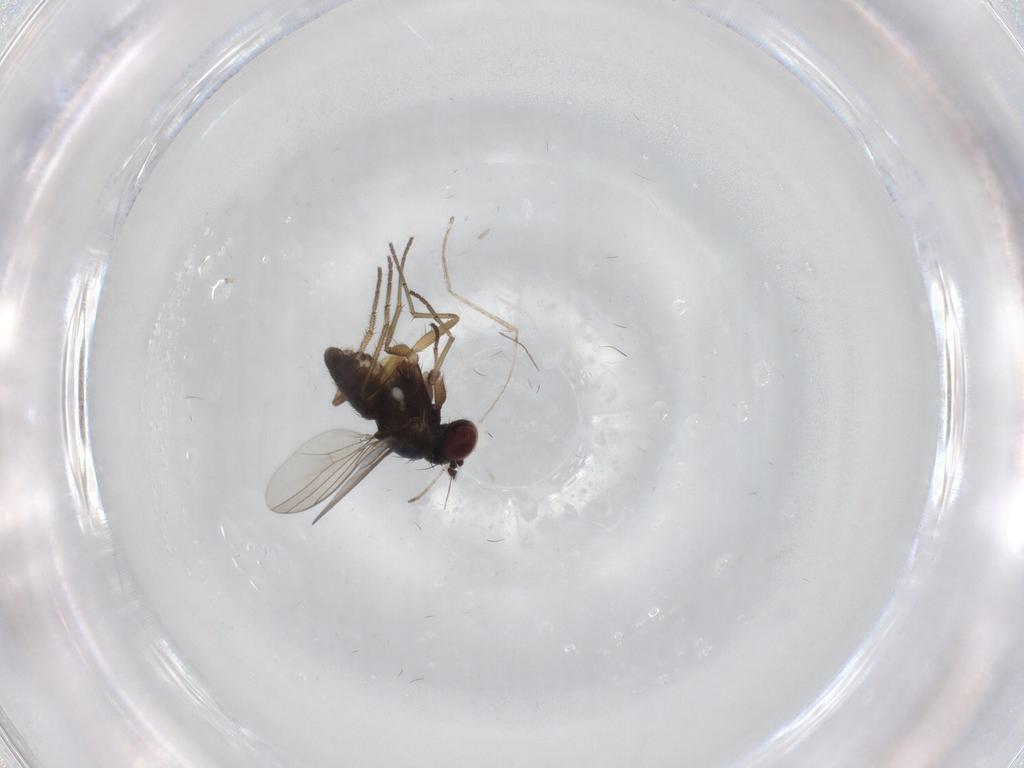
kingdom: Animalia
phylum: Arthropoda
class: Insecta
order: Diptera
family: Dolichopodidae
